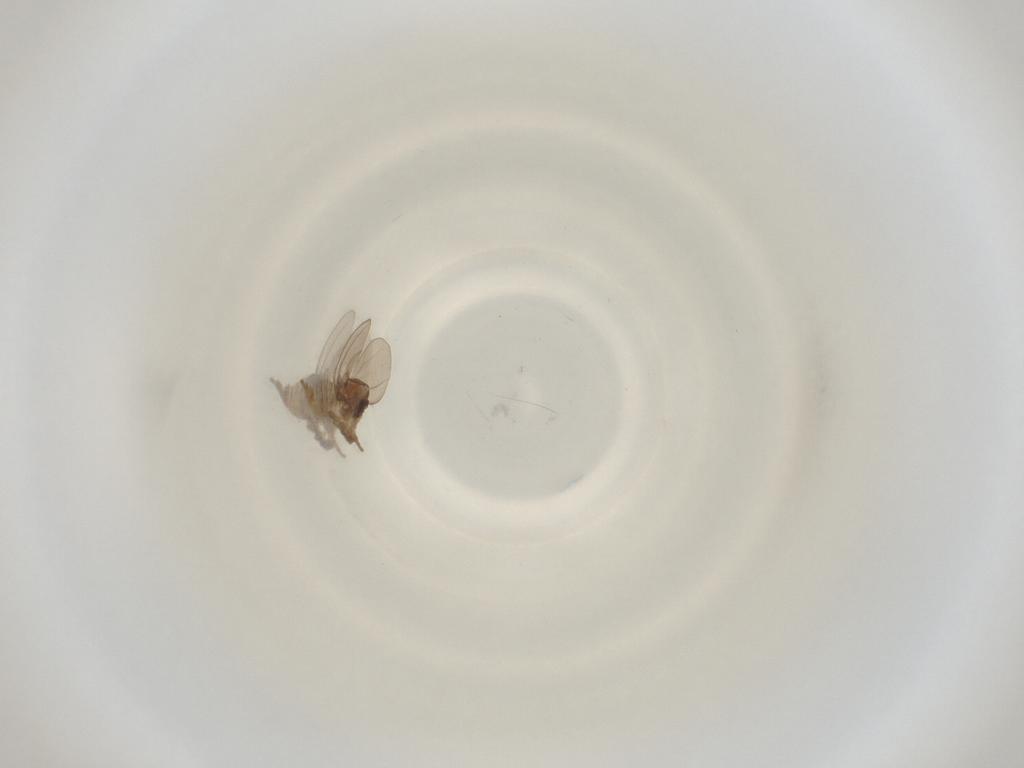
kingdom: Animalia
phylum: Arthropoda
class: Insecta
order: Diptera
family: Cecidomyiidae
